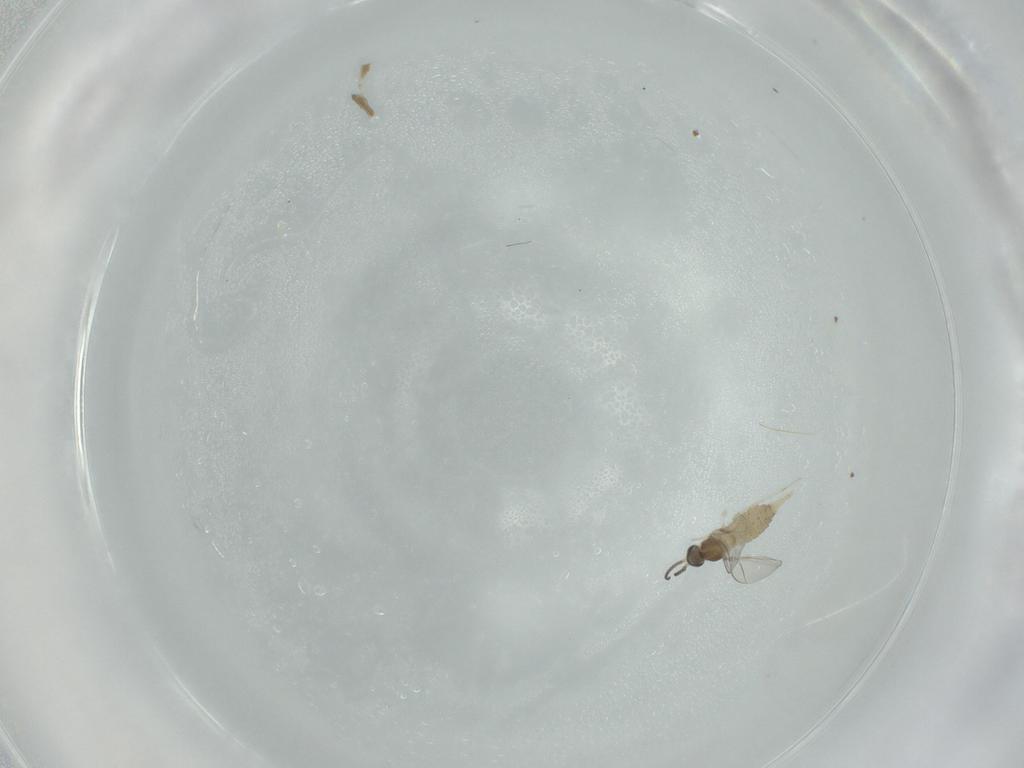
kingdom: Animalia
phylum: Arthropoda
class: Insecta
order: Diptera
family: Cecidomyiidae
